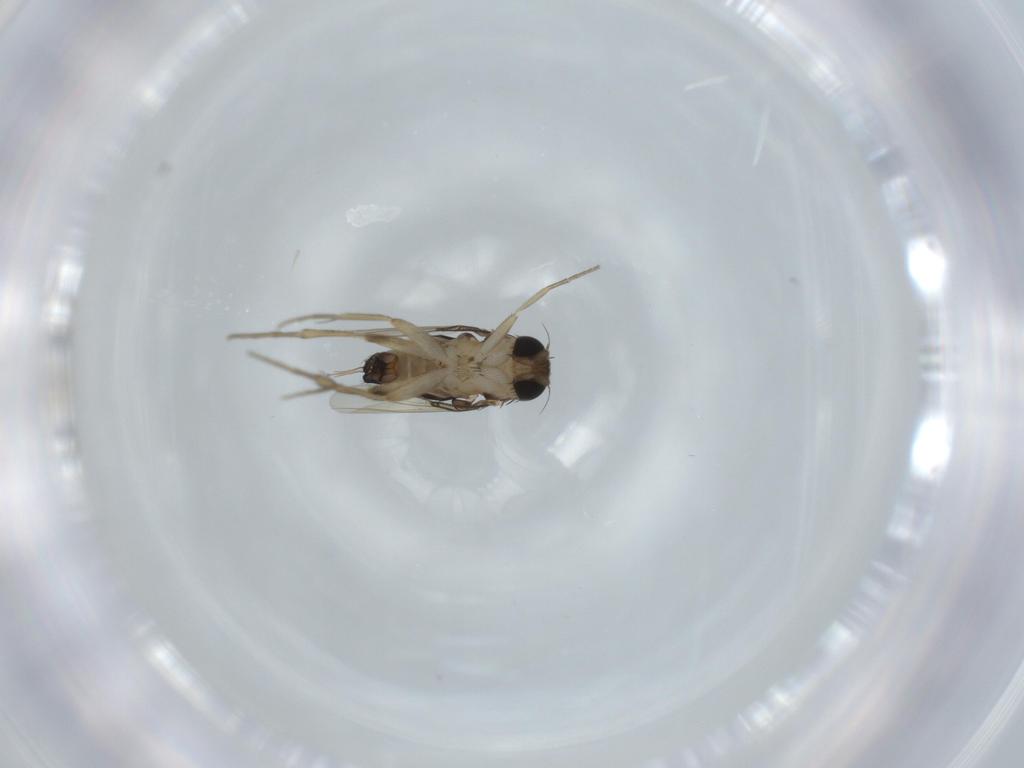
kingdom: Animalia
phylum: Arthropoda
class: Insecta
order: Diptera
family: Phoridae
